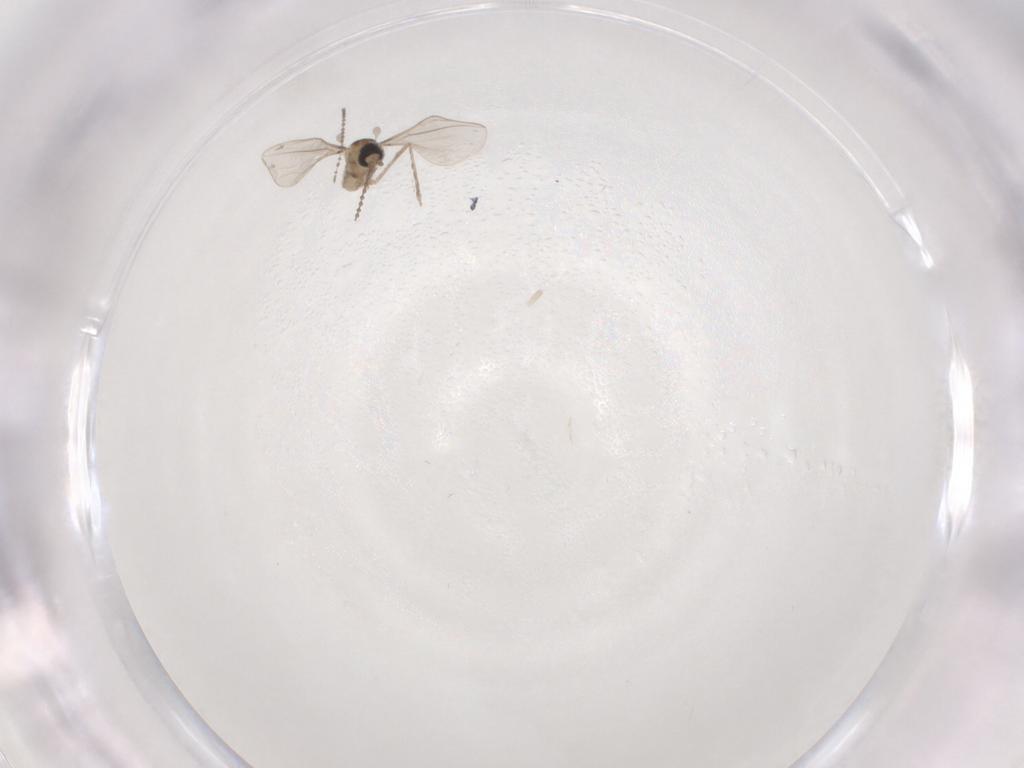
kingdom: Animalia
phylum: Arthropoda
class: Insecta
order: Diptera
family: Cecidomyiidae
